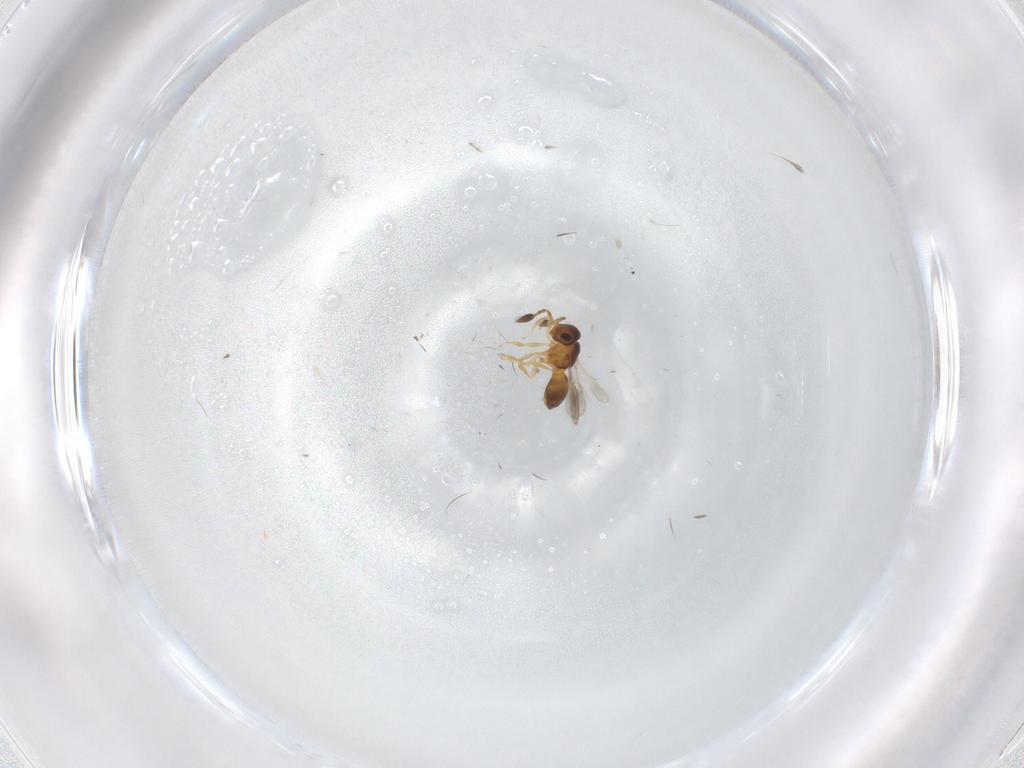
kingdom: Animalia
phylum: Arthropoda
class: Insecta
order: Hymenoptera
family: Scelionidae
